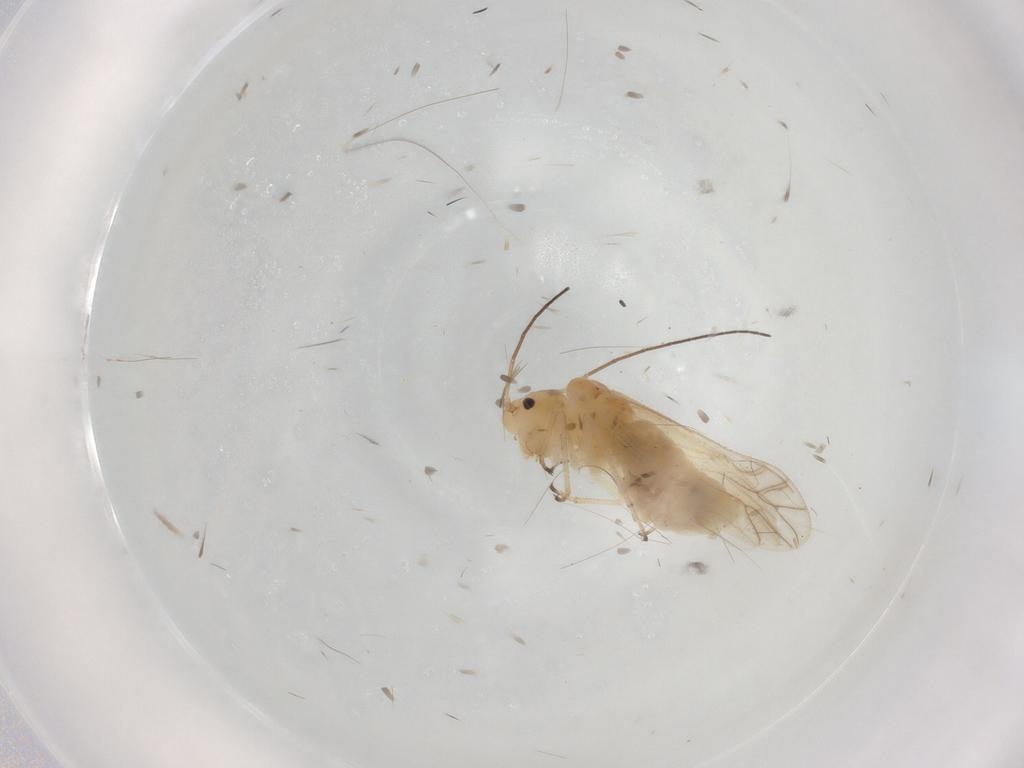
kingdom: Animalia
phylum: Arthropoda
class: Insecta
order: Psocodea
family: Caeciliusidae
